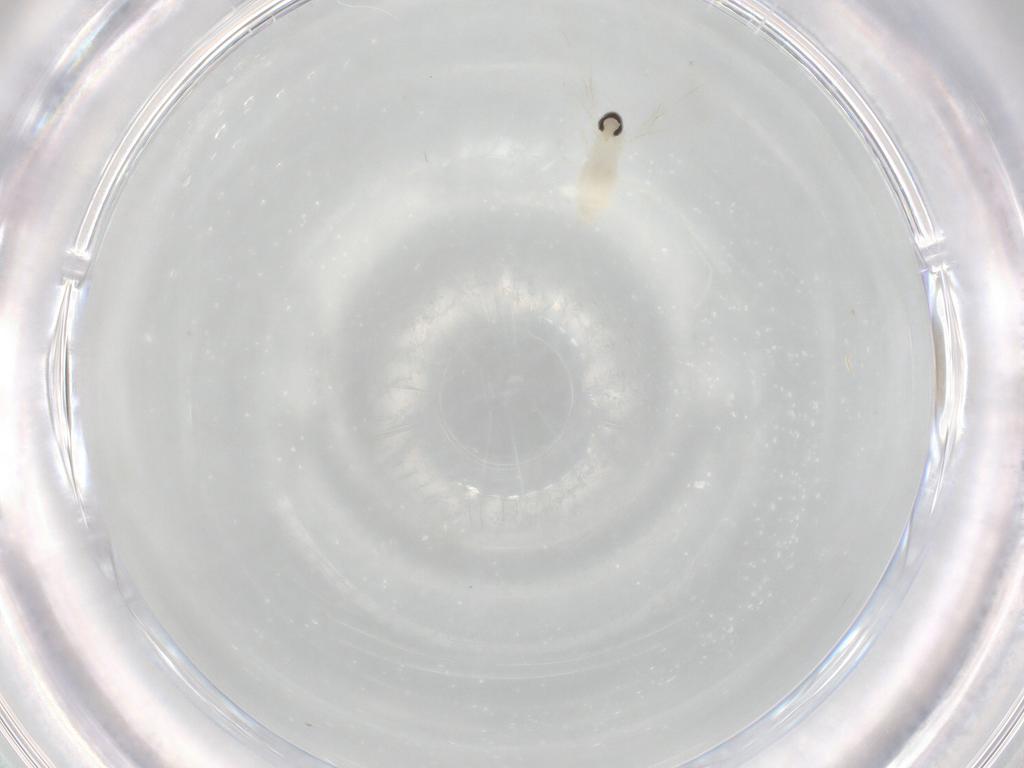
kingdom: Animalia
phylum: Arthropoda
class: Insecta
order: Diptera
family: Cecidomyiidae
